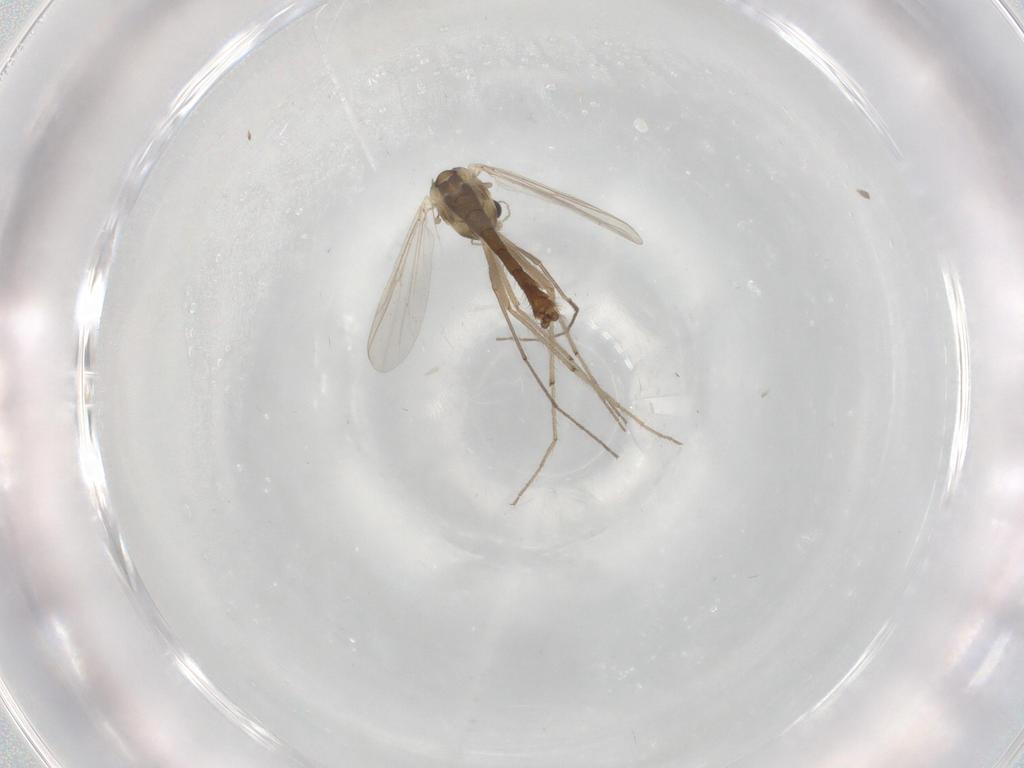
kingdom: Animalia
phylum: Arthropoda
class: Insecta
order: Diptera
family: Chironomidae
